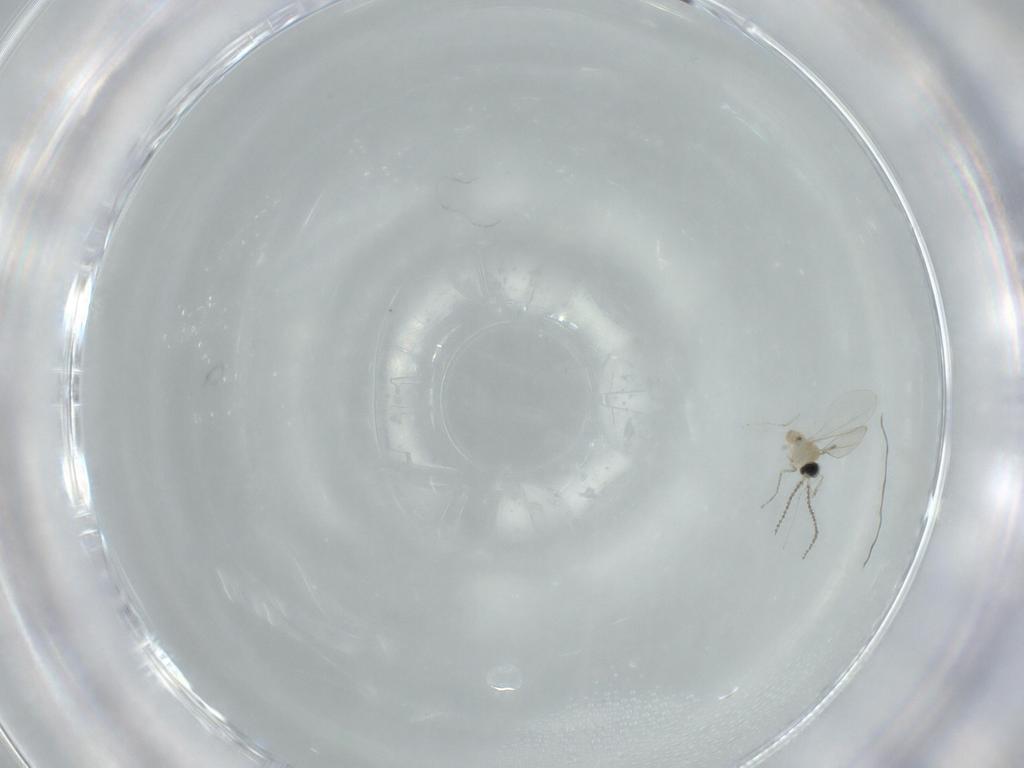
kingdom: Animalia
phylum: Arthropoda
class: Insecta
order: Diptera
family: Cecidomyiidae
